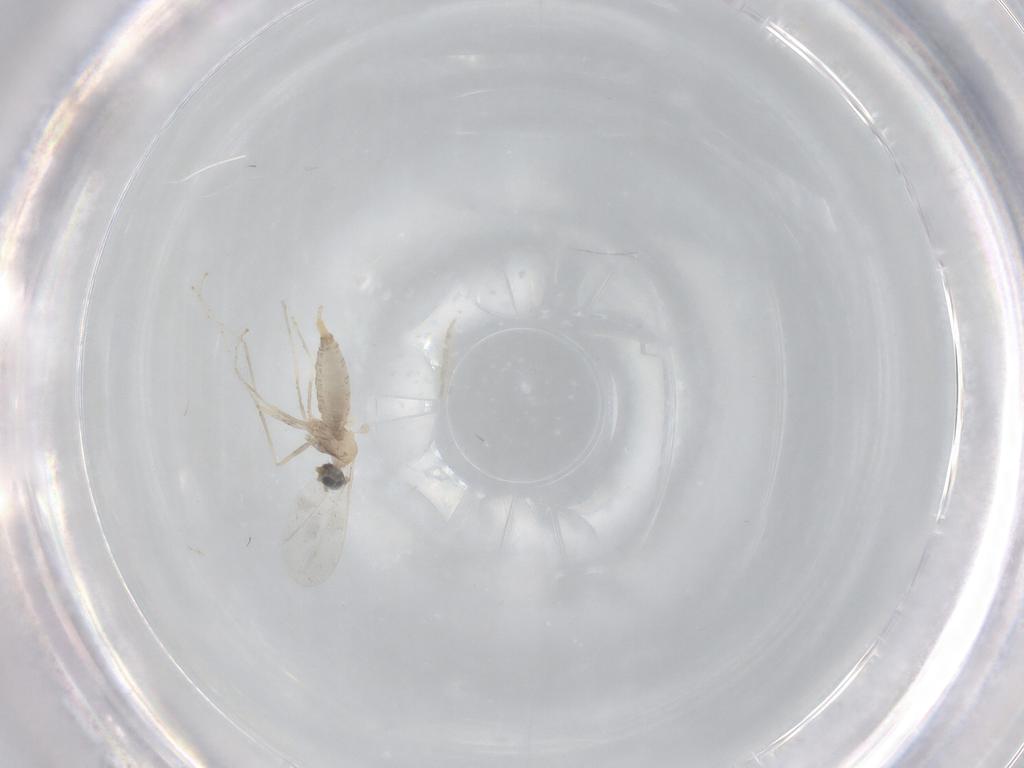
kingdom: Animalia
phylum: Arthropoda
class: Insecta
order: Diptera
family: Cecidomyiidae
